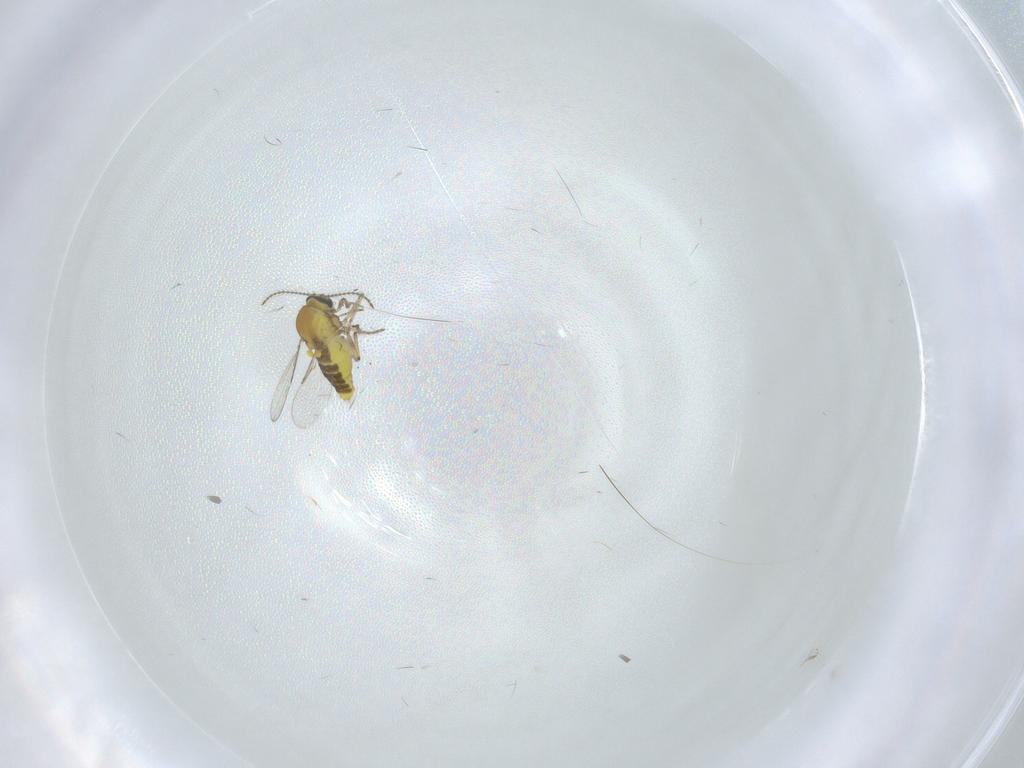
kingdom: Animalia
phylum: Arthropoda
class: Insecta
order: Diptera
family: Ceratopogonidae
